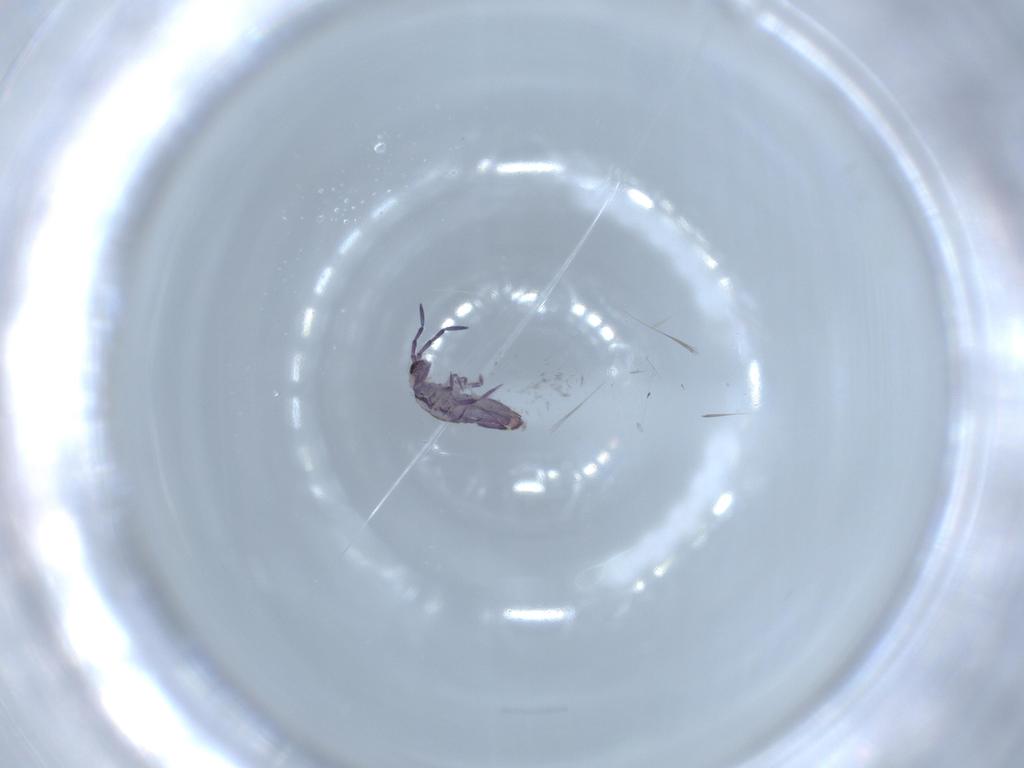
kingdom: Animalia
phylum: Arthropoda
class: Collembola
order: Entomobryomorpha
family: Entomobryidae
